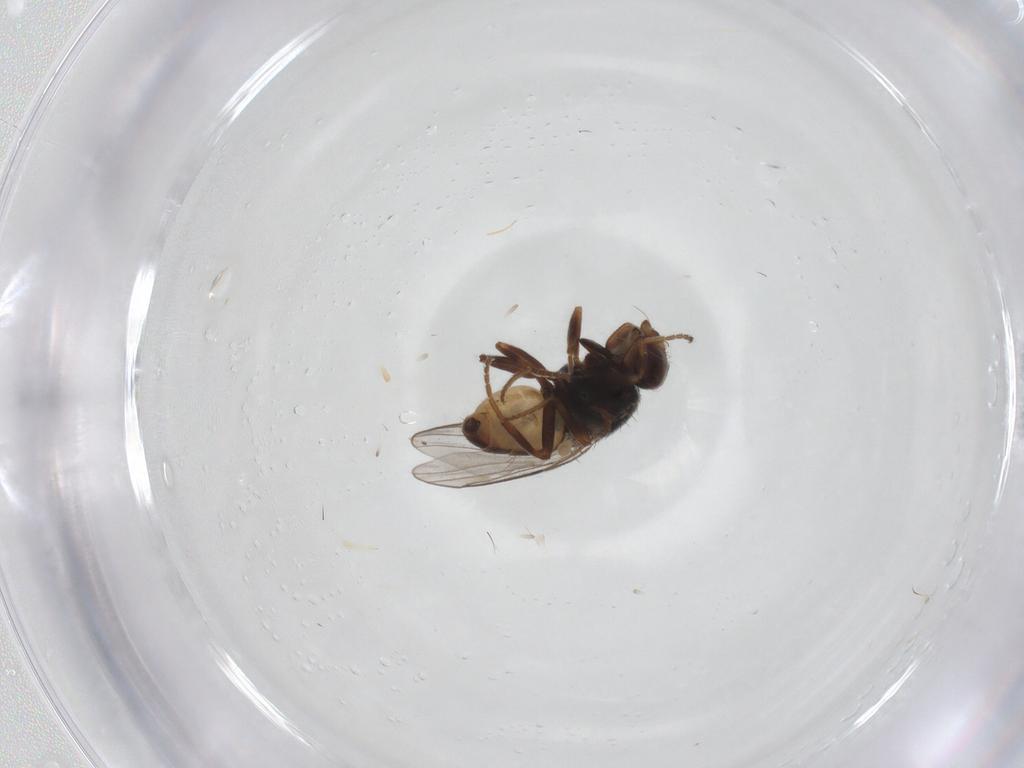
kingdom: Animalia
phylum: Arthropoda
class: Insecta
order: Diptera
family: Chloropidae
